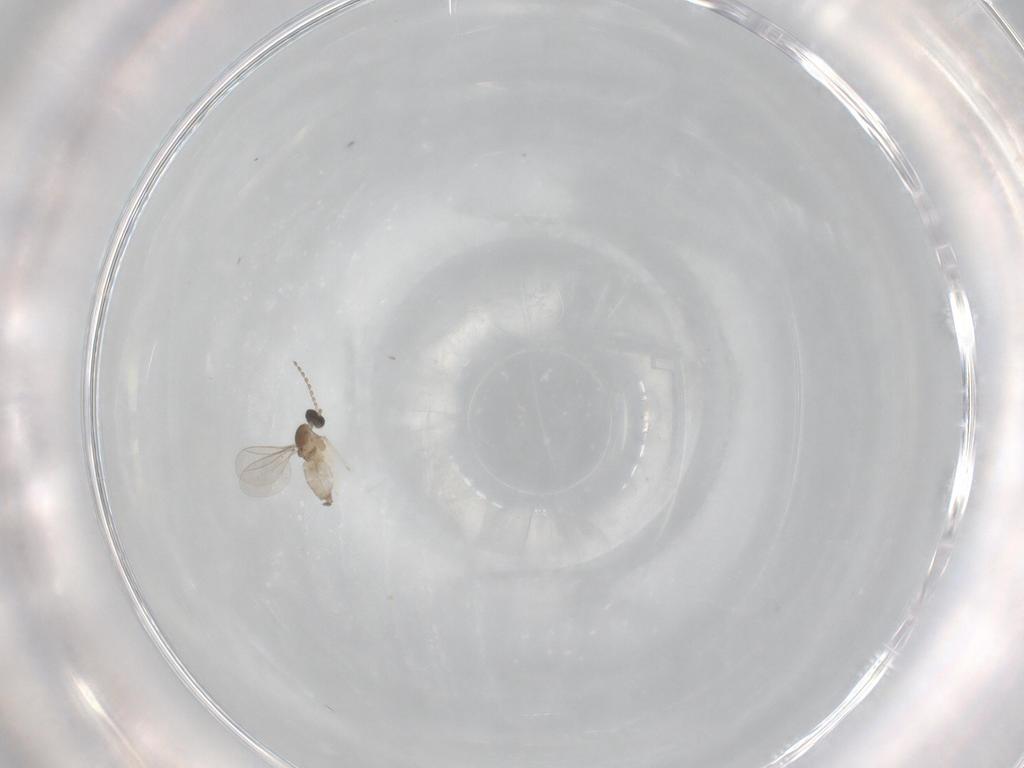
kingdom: Animalia
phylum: Arthropoda
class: Insecta
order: Diptera
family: Cecidomyiidae
